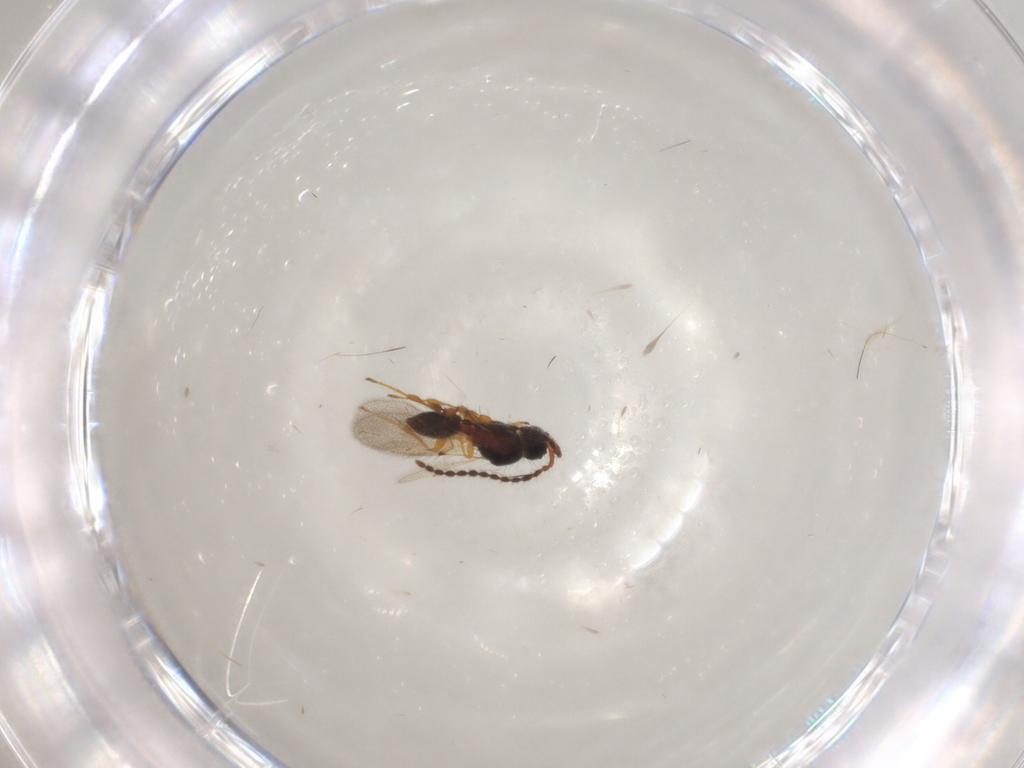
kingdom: Animalia
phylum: Arthropoda
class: Insecta
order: Hymenoptera
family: Diapriidae
